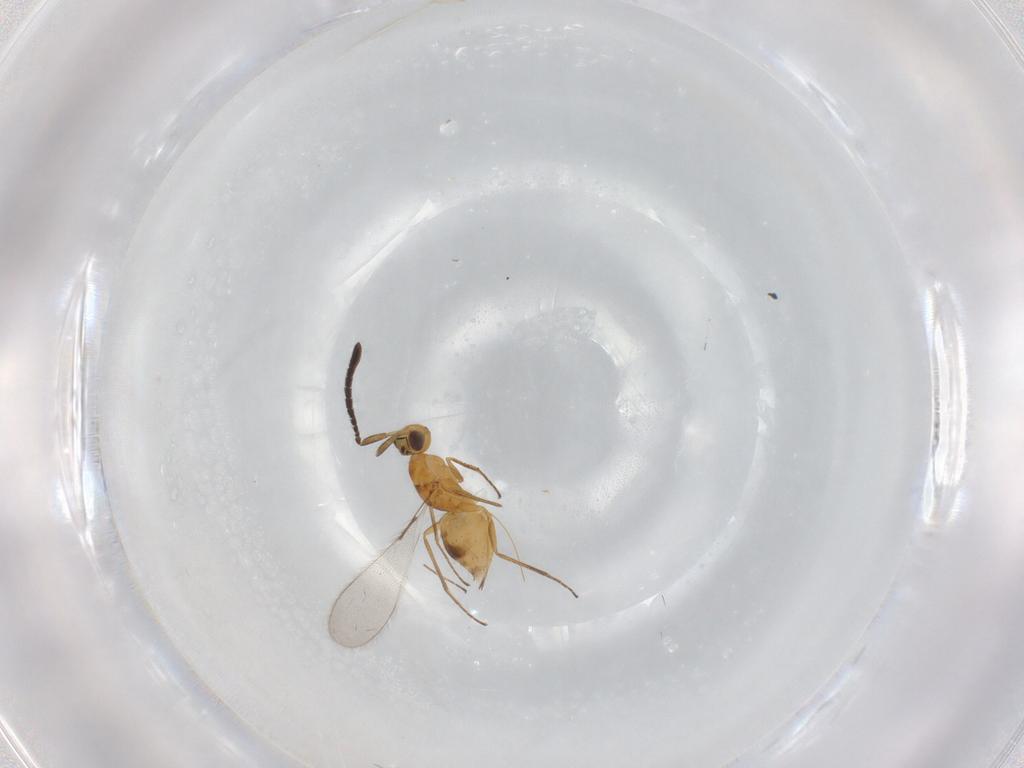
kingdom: Animalia
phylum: Arthropoda
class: Insecta
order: Hymenoptera
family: Mymaridae
